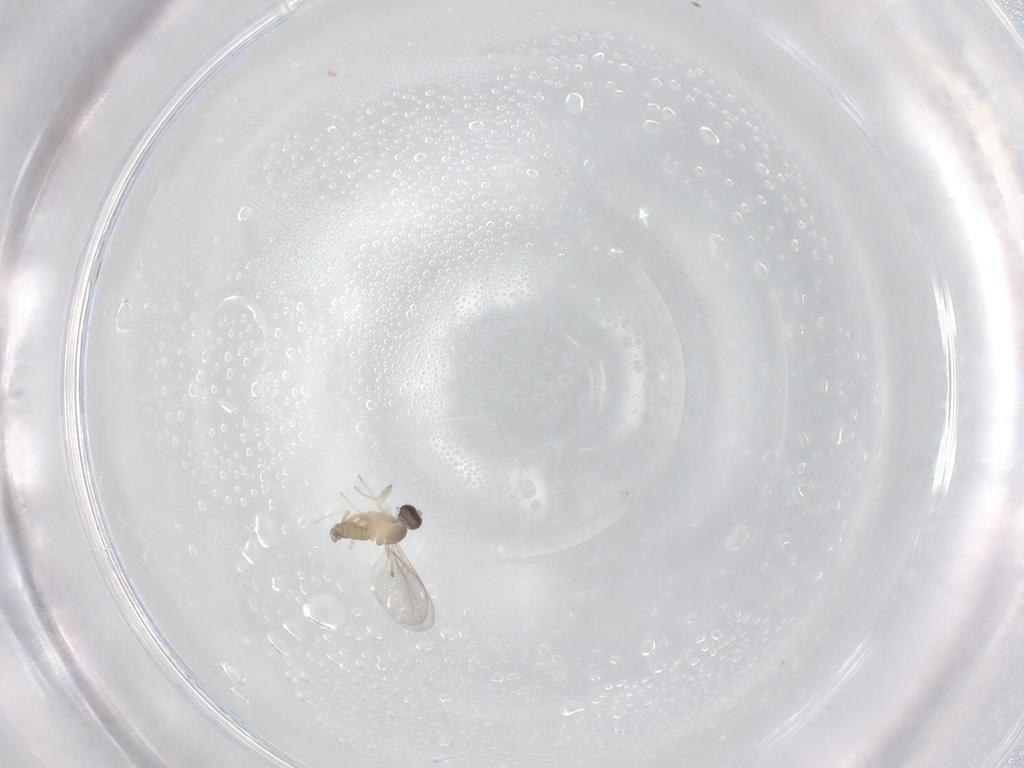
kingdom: Animalia
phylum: Arthropoda
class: Insecta
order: Diptera
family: Cecidomyiidae
